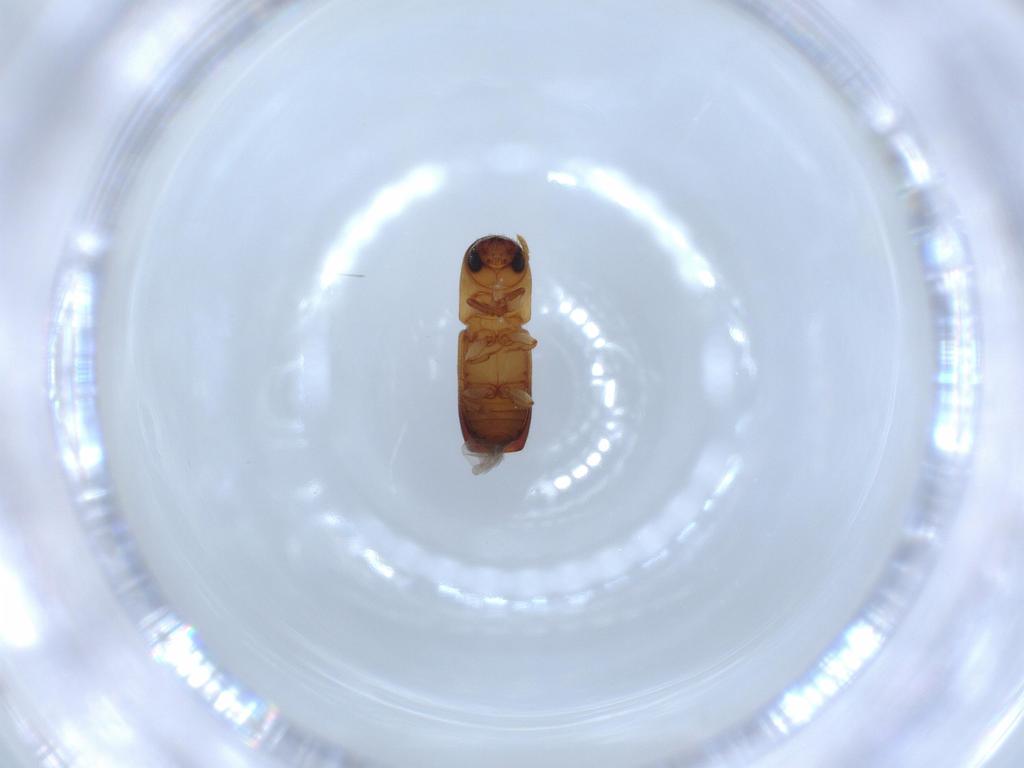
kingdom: Animalia
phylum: Arthropoda
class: Insecta
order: Coleoptera
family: Curculionidae
